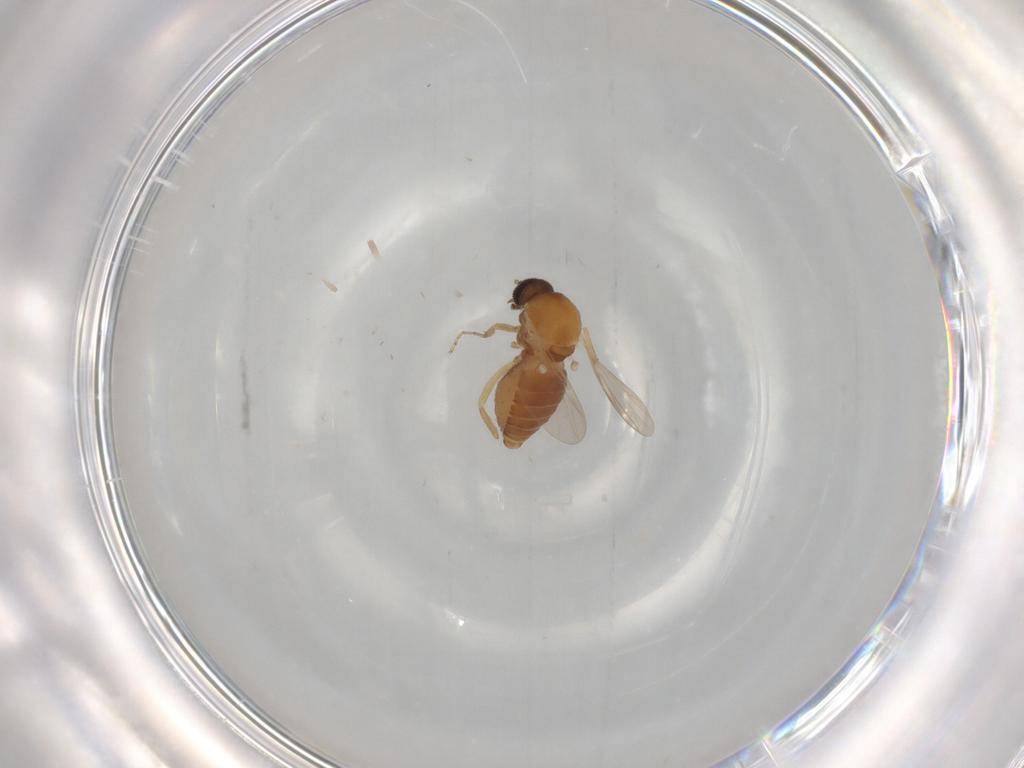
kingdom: Animalia
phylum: Arthropoda
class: Insecta
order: Diptera
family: Ceratopogonidae
